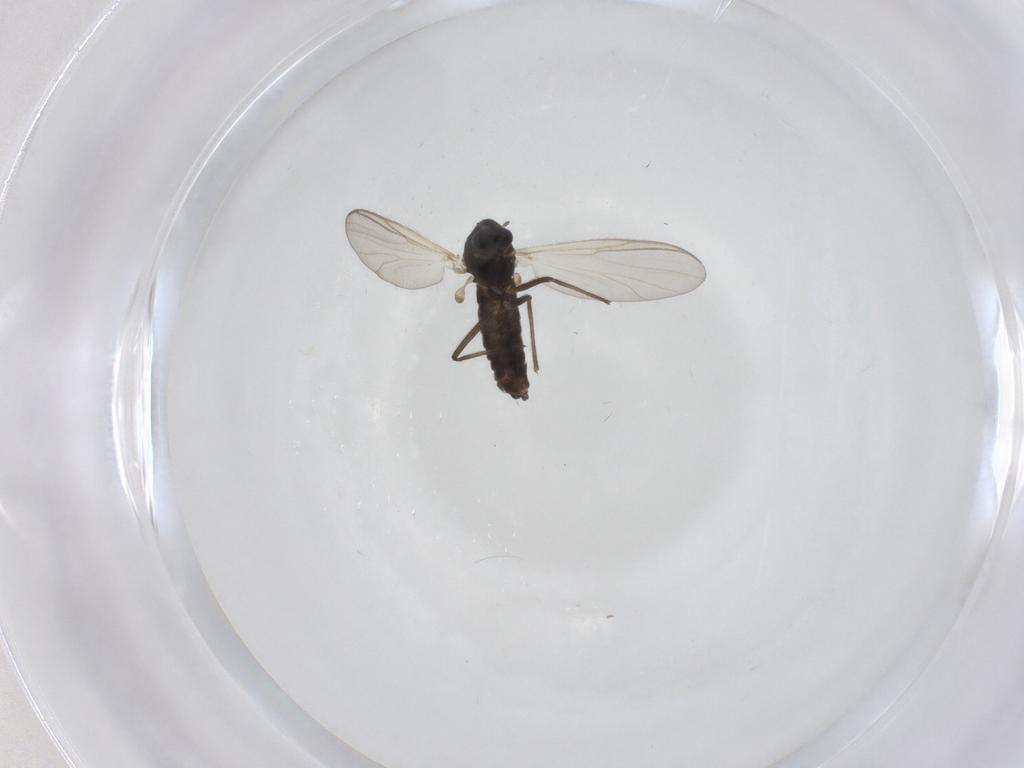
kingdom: Animalia
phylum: Arthropoda
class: Insecta
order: Diptera
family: Chironomidae
